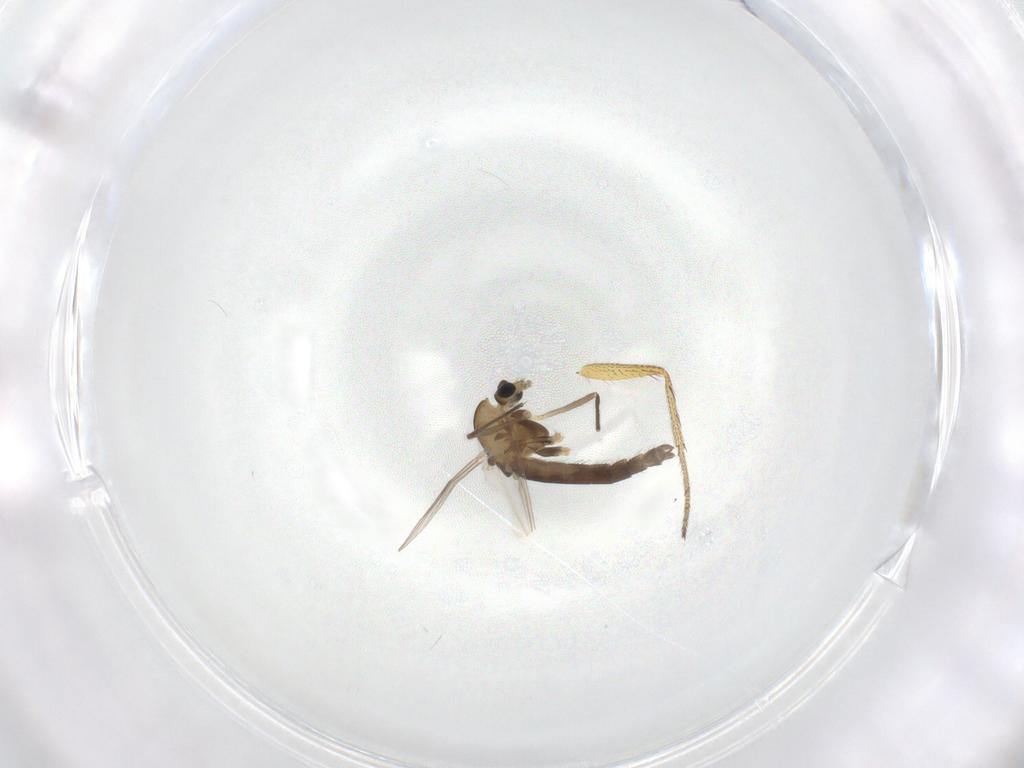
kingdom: Animalia
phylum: Arthropoda
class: Insecta
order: Diptera
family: Chironomidae
